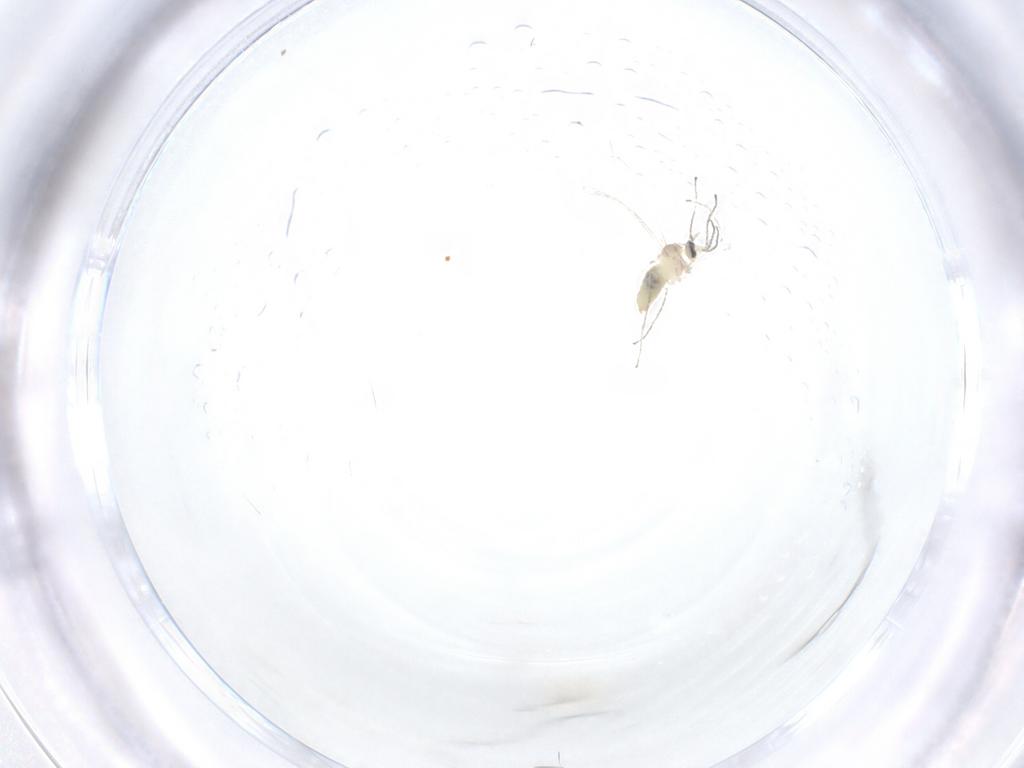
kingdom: Animalia
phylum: Arthropoda
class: Insecta
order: Diptera
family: Cecidomyiidae
